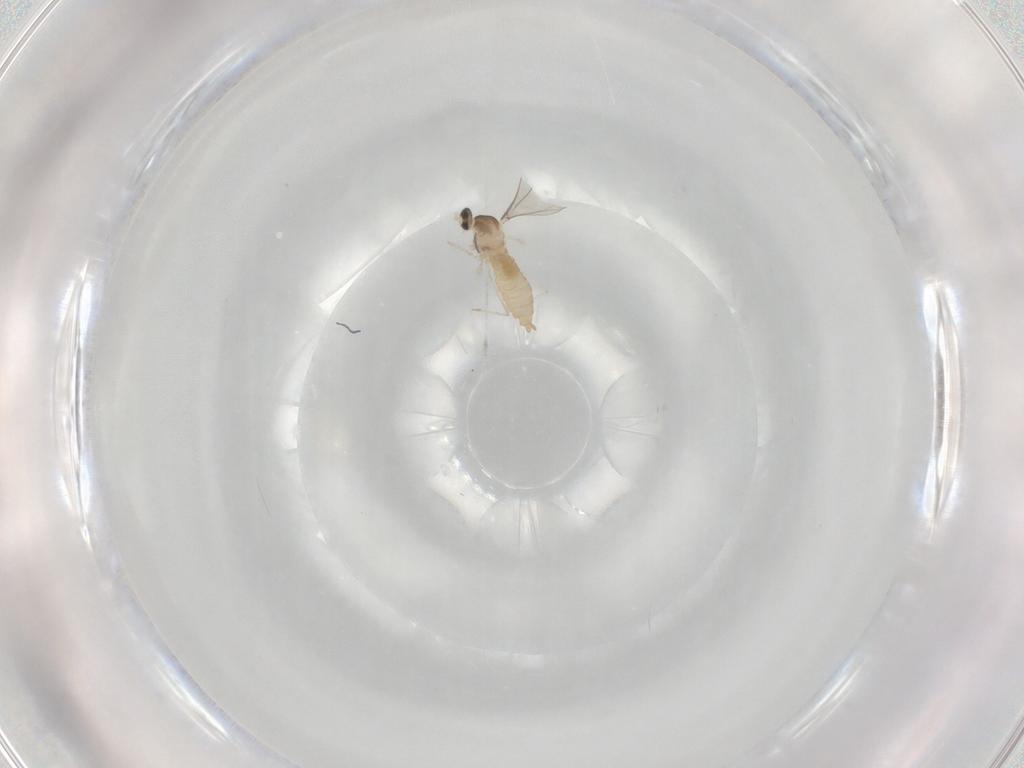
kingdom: Animalia
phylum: Arthropoda
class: Insecta
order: Diptera
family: Cecidomyiidae
